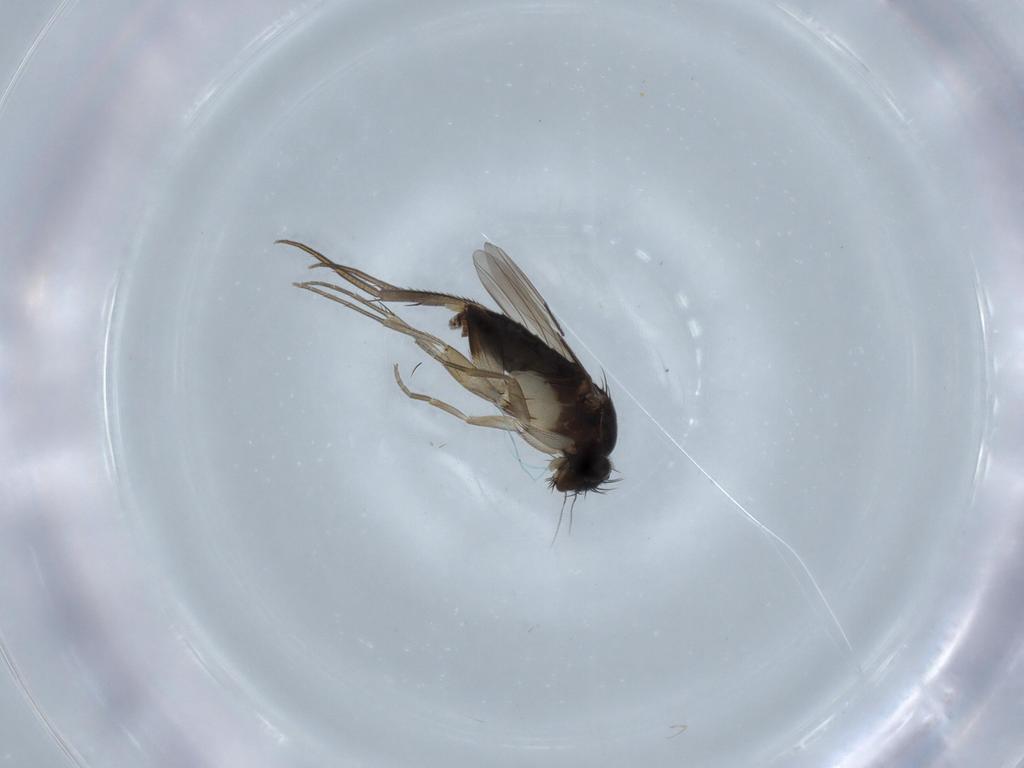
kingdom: Animalia
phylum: Arthropoda
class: Insecta
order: Diptera
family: Phoridae
